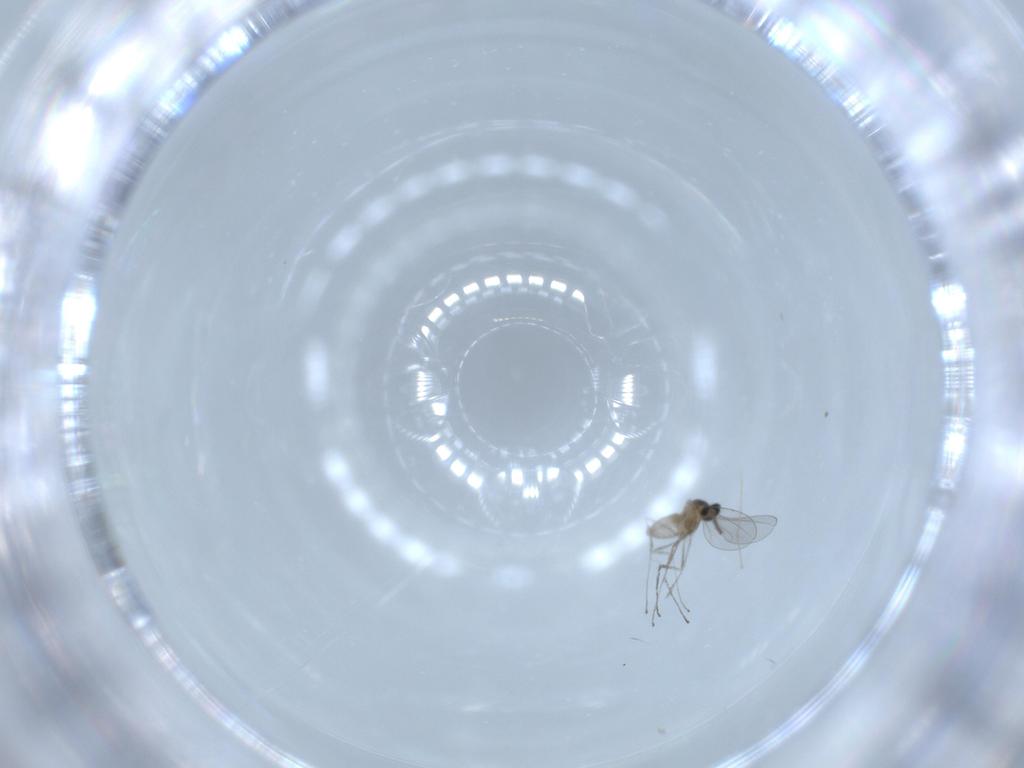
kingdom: Animalia
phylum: Arthropoda
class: Insecta
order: Diptera
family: Cecidomyiidae
